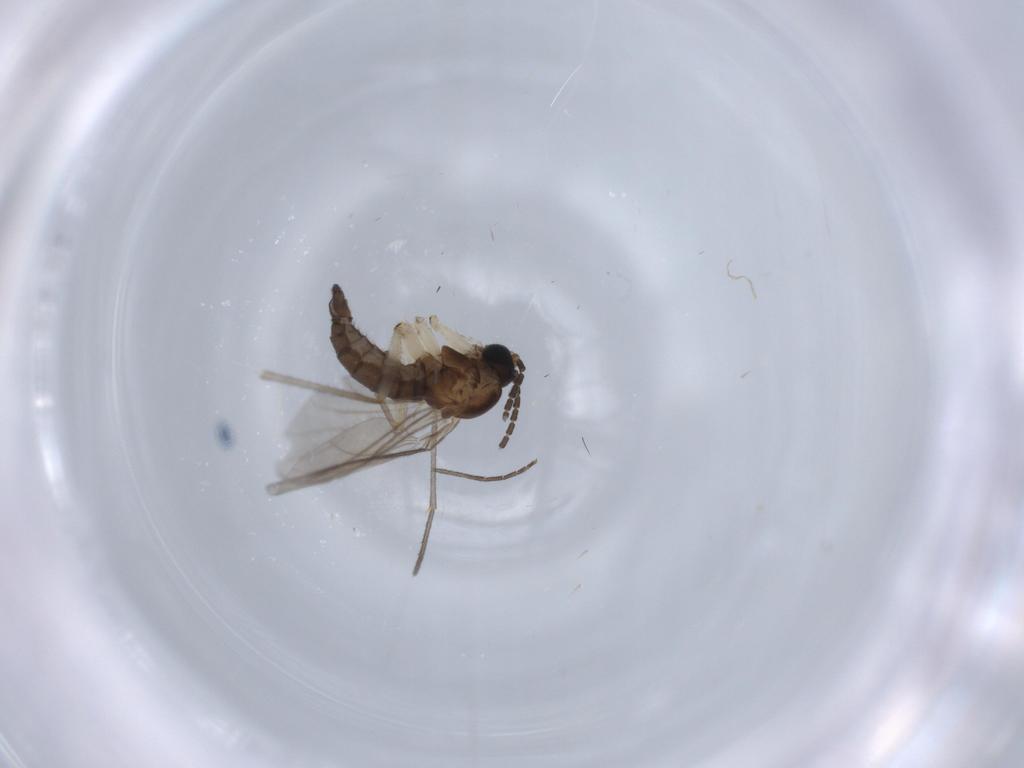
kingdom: Animalia
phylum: Arthropoda
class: Insecta
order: Diptera
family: Sciaridae
